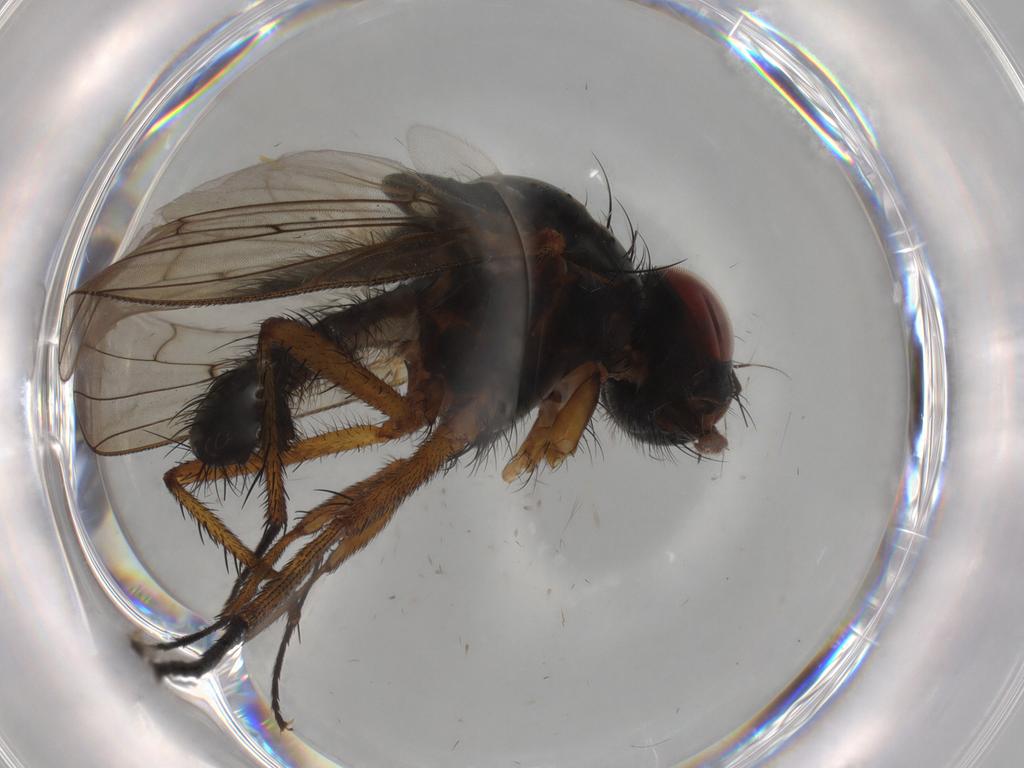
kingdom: Animalia
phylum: Arthropoda
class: Insecta
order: Diptera
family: Anthomyiidae
